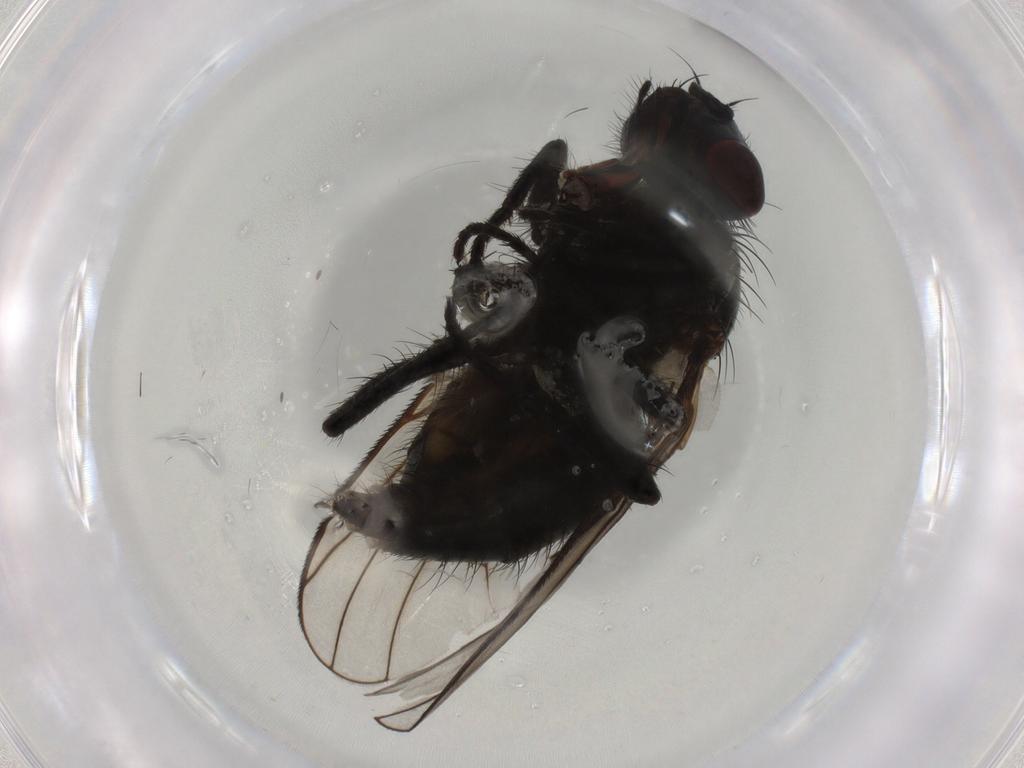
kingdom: Animalia
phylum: Arthropoda
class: Insecta
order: Diptera
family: Muscidae
